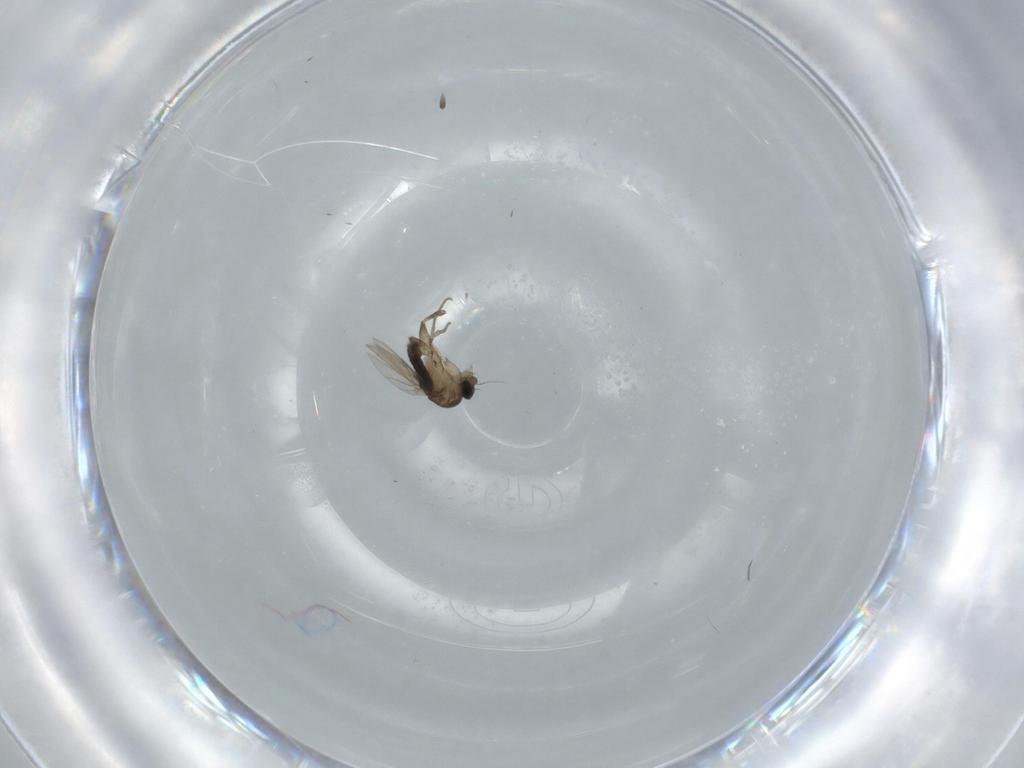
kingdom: Animalia
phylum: Arthropoda
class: Insecta
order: Diptera
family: Phoridae
